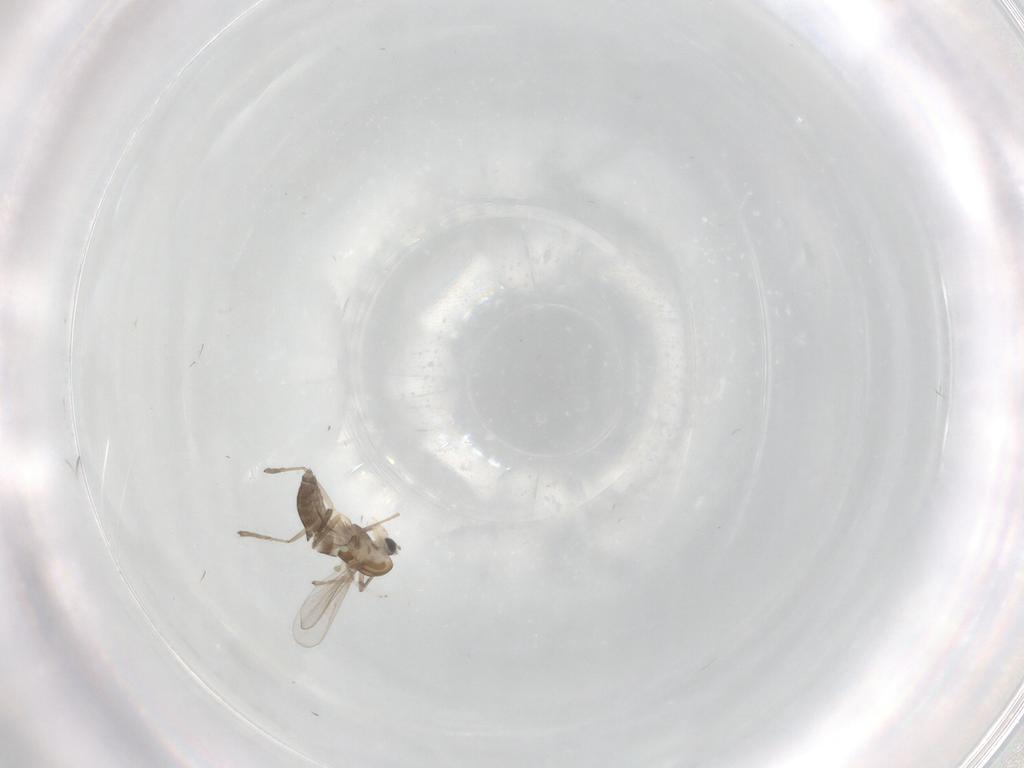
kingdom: Animalia
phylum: Arthropoda
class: Insecta
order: Diptera
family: Chironomidae
